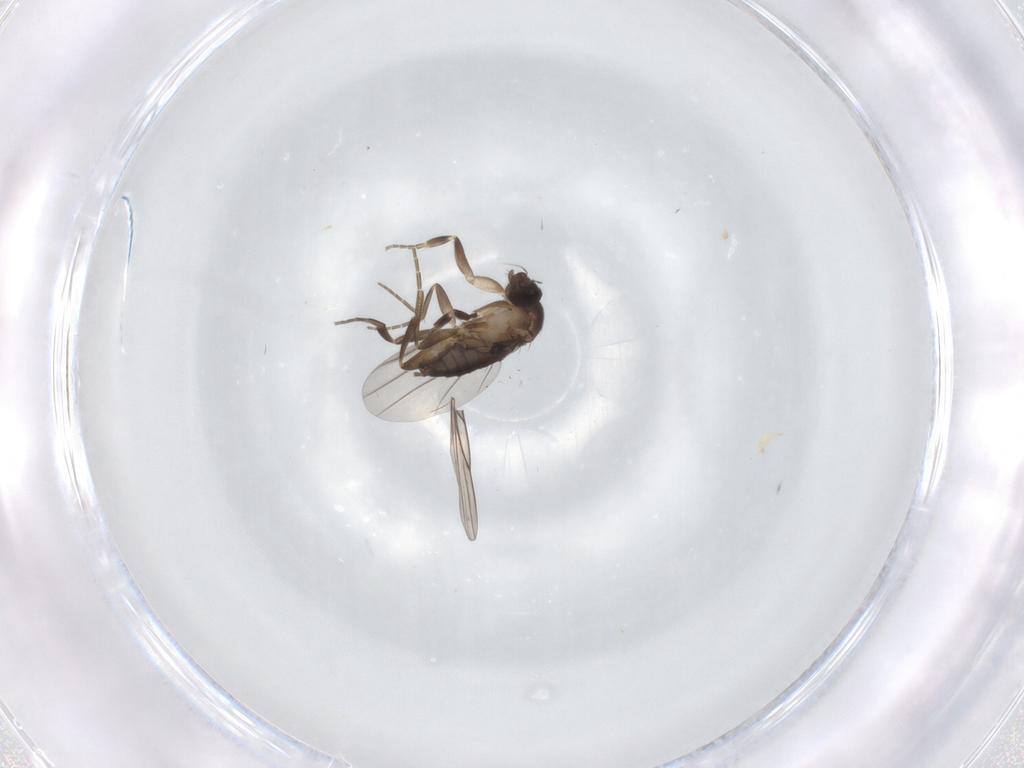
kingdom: Animalia
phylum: Arthropoda
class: Insecta
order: Diptera
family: Phoridae
